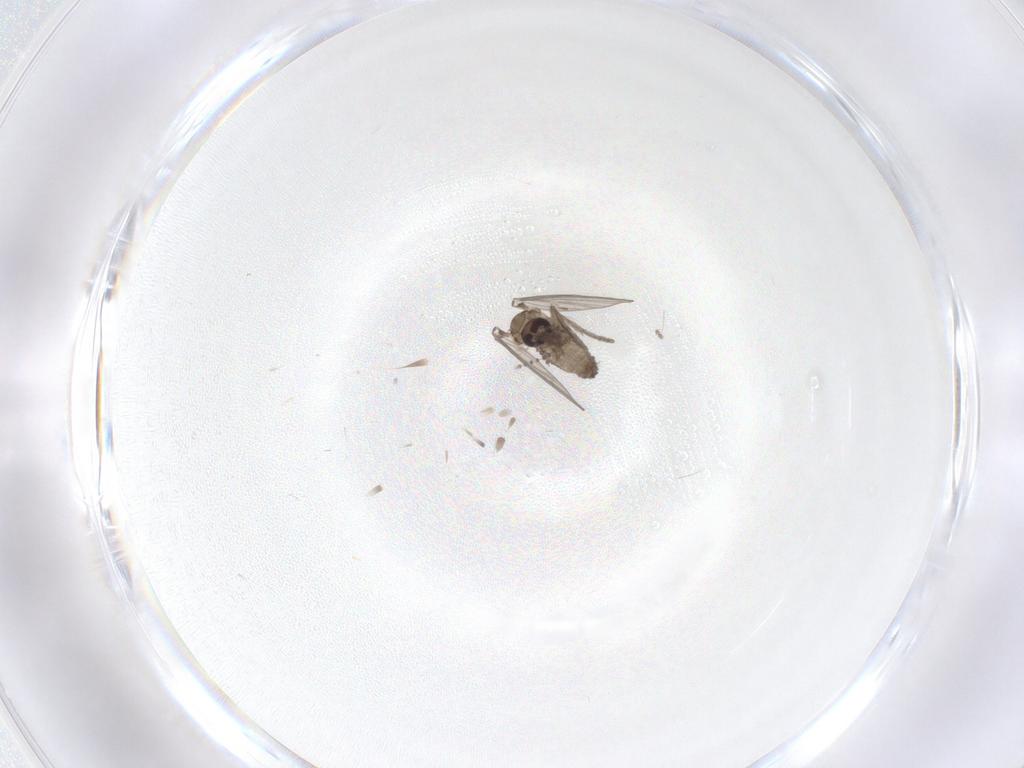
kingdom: Animalia
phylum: Arthropoda
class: Insecta
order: Diptera
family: Psychodidae
